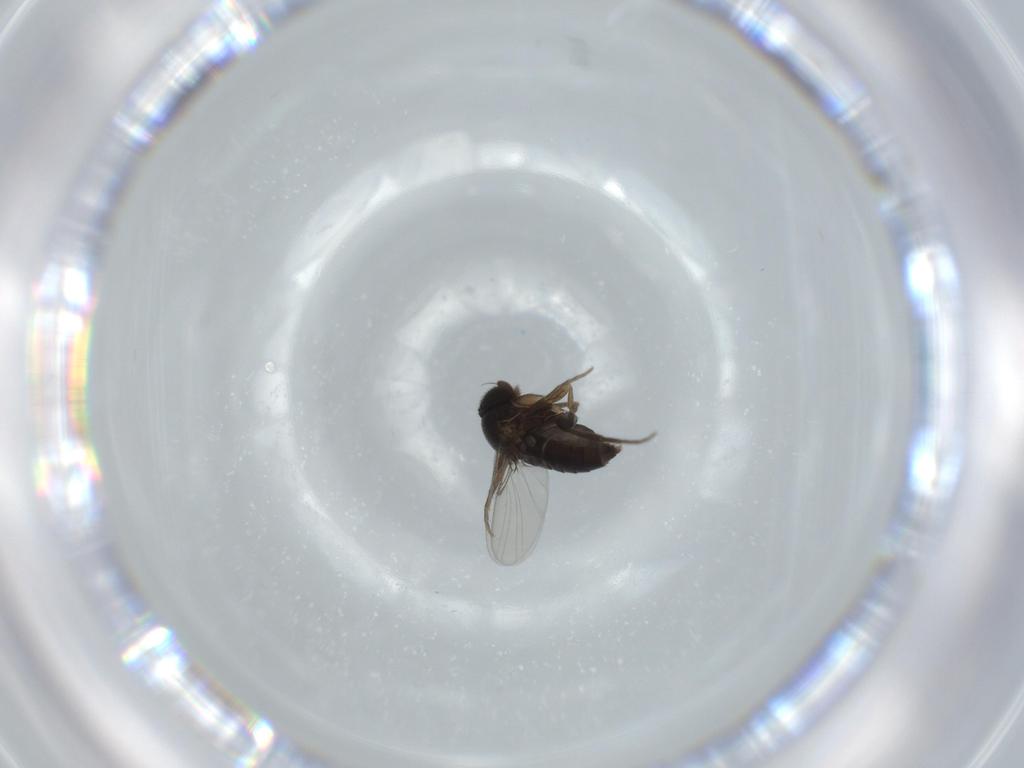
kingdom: Animalia
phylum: Arthropoda
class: Insecta
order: Diptera
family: Phoridae
